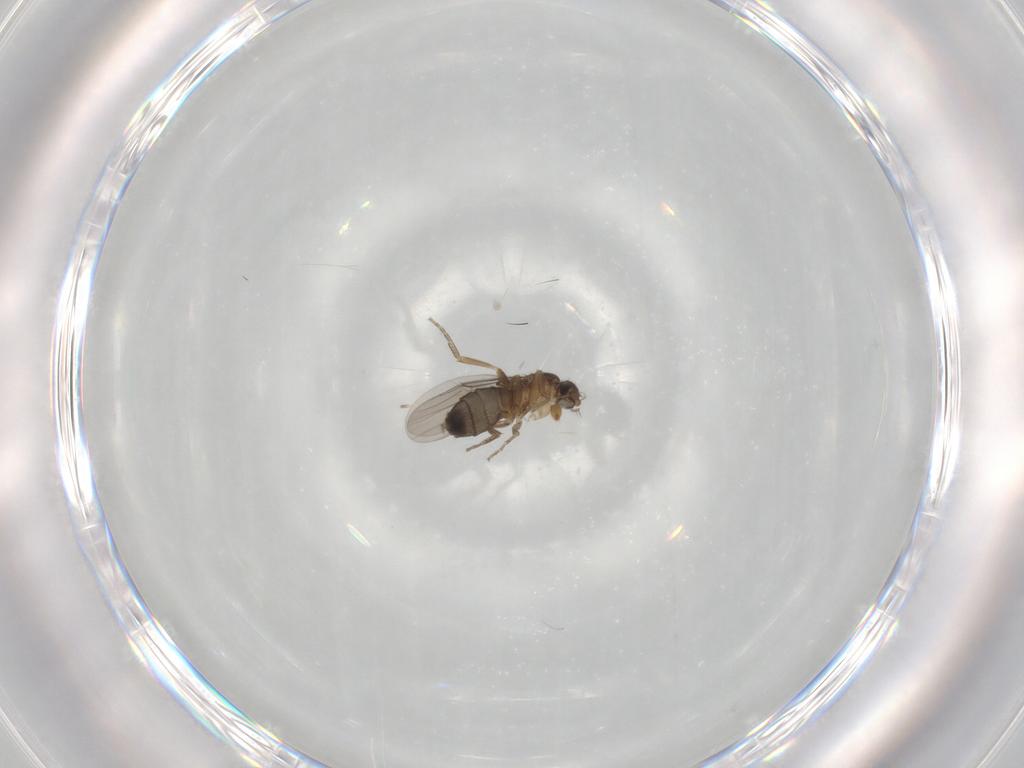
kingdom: Animalia
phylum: Arthropoda
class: Insecta
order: Diptera
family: Phoridae
